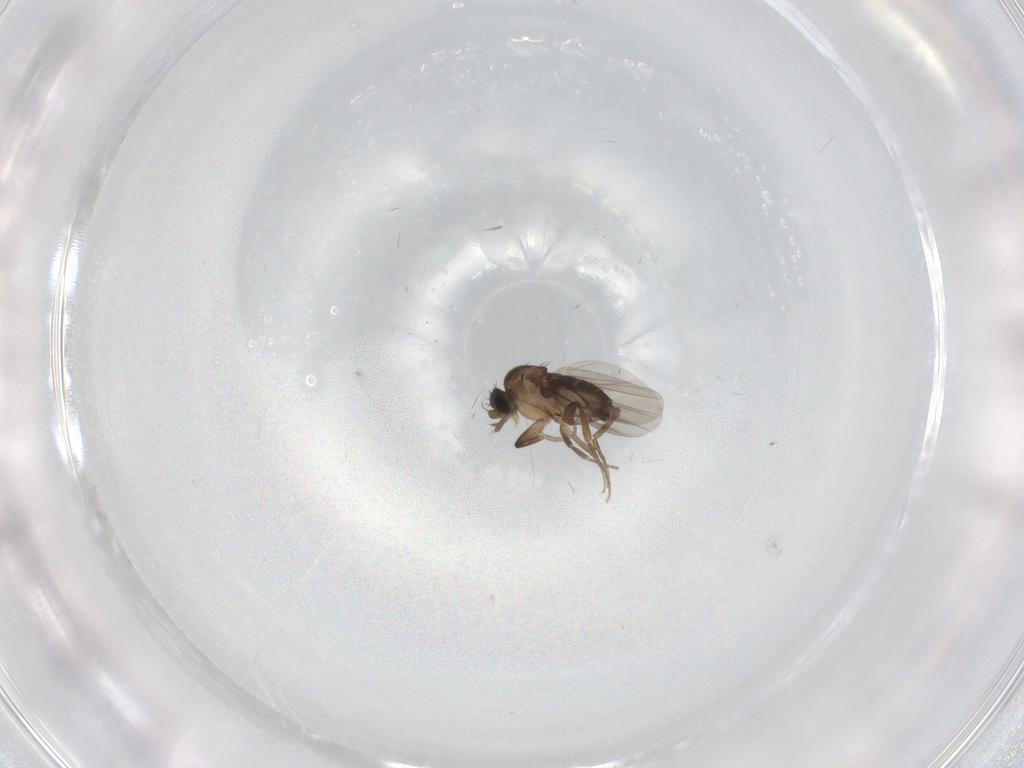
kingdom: Animalia
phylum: Arthropoda
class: Insecta
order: Diptera
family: Phoridae
